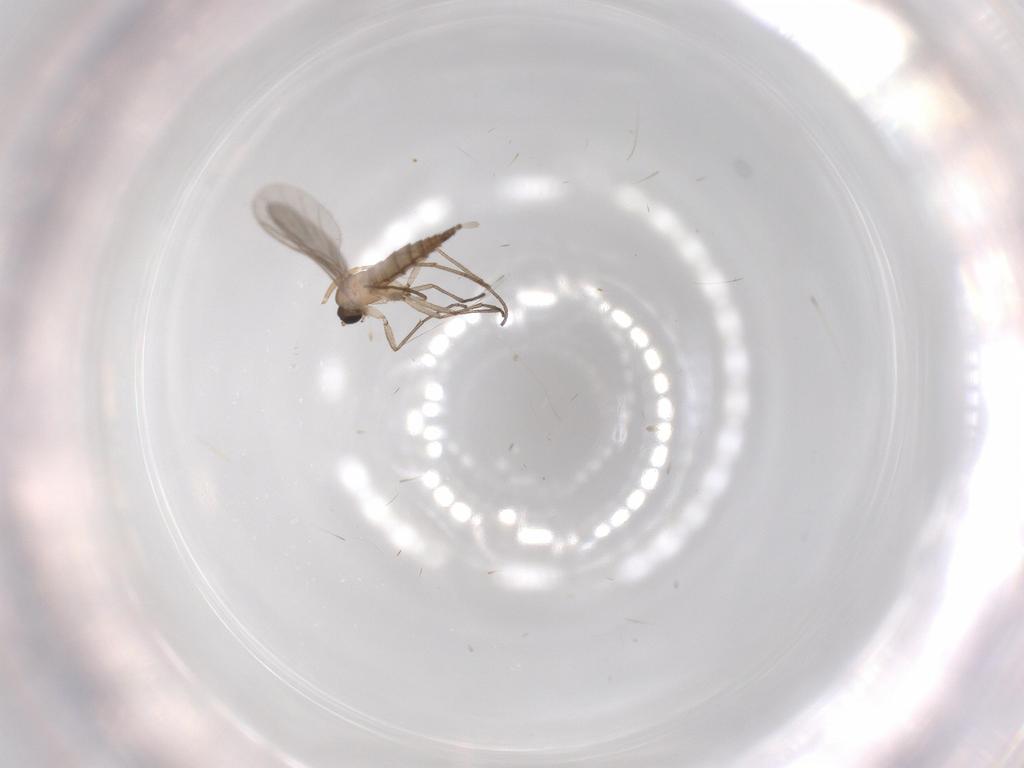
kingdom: Animalia
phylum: Arthropoda
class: Insecta
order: Diptera
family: Sciaridae
